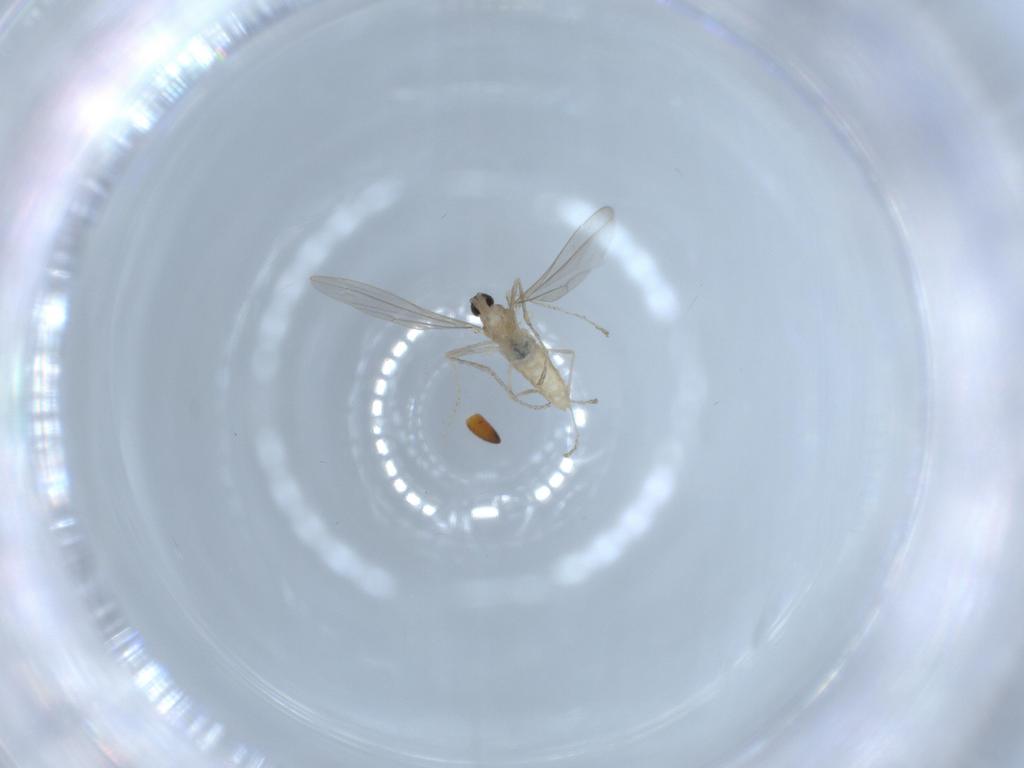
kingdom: Animalia
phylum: Arthropoda
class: Insecta
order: Diptera
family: Cecidomyiidae
